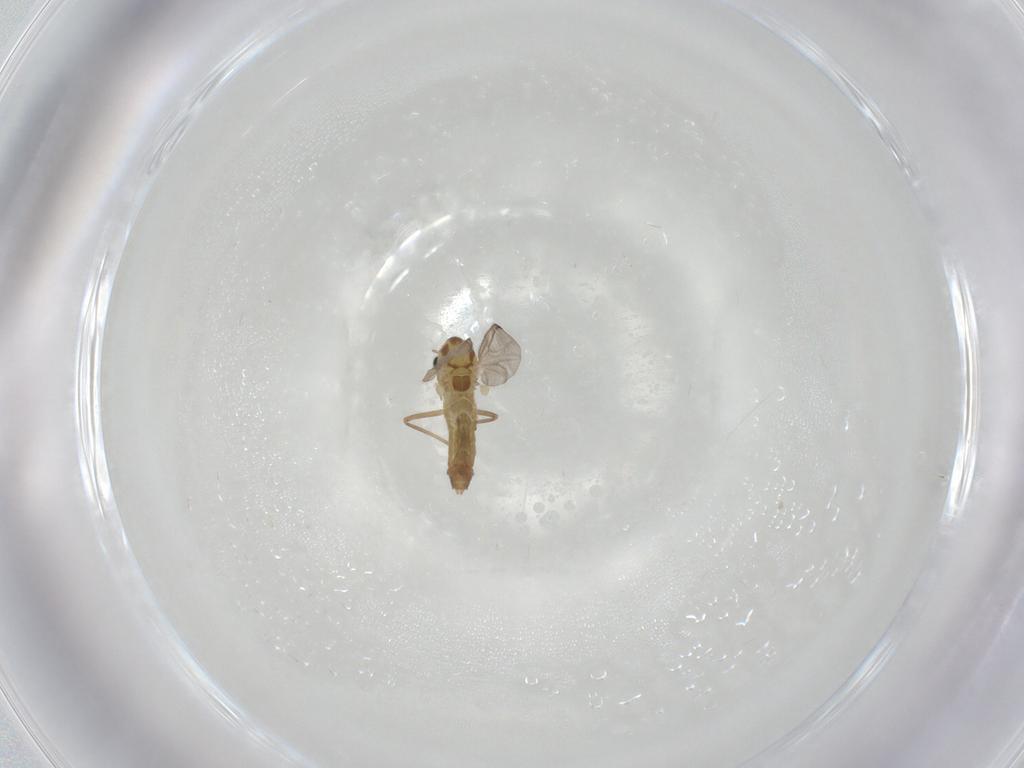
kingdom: Animalia
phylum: Arthropoda
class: Insecta
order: Diptera
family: Chironomidae
